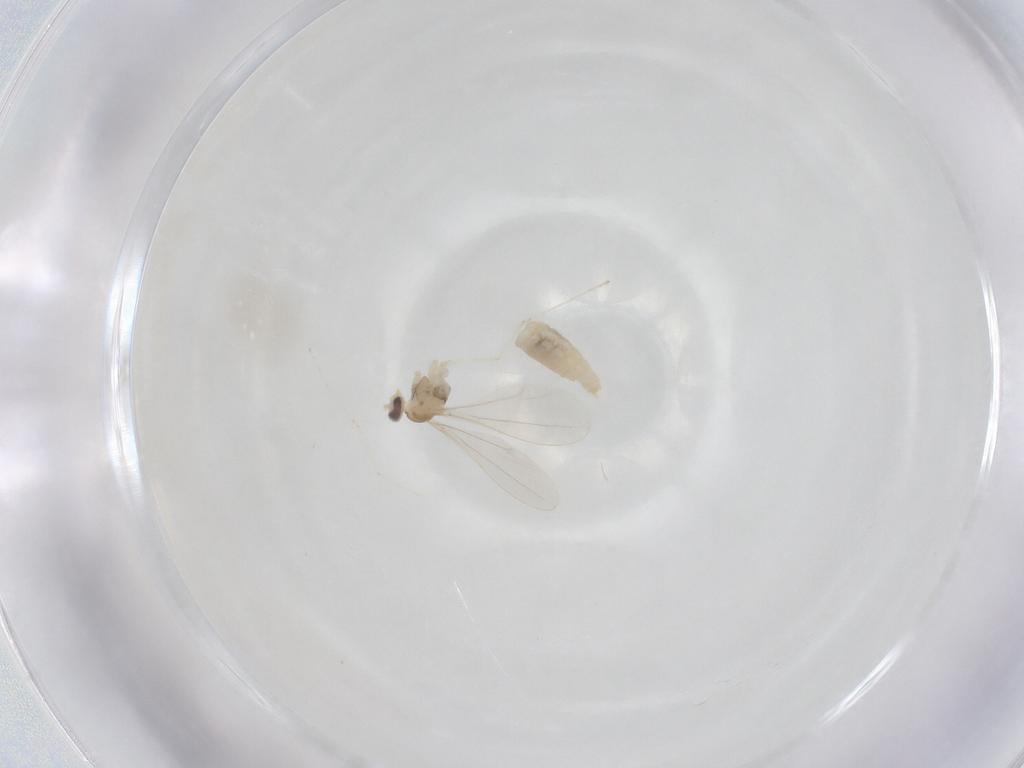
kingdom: Animalia
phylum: Arthropoda
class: Insecta
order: Diptera
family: Cecidomyiidae
